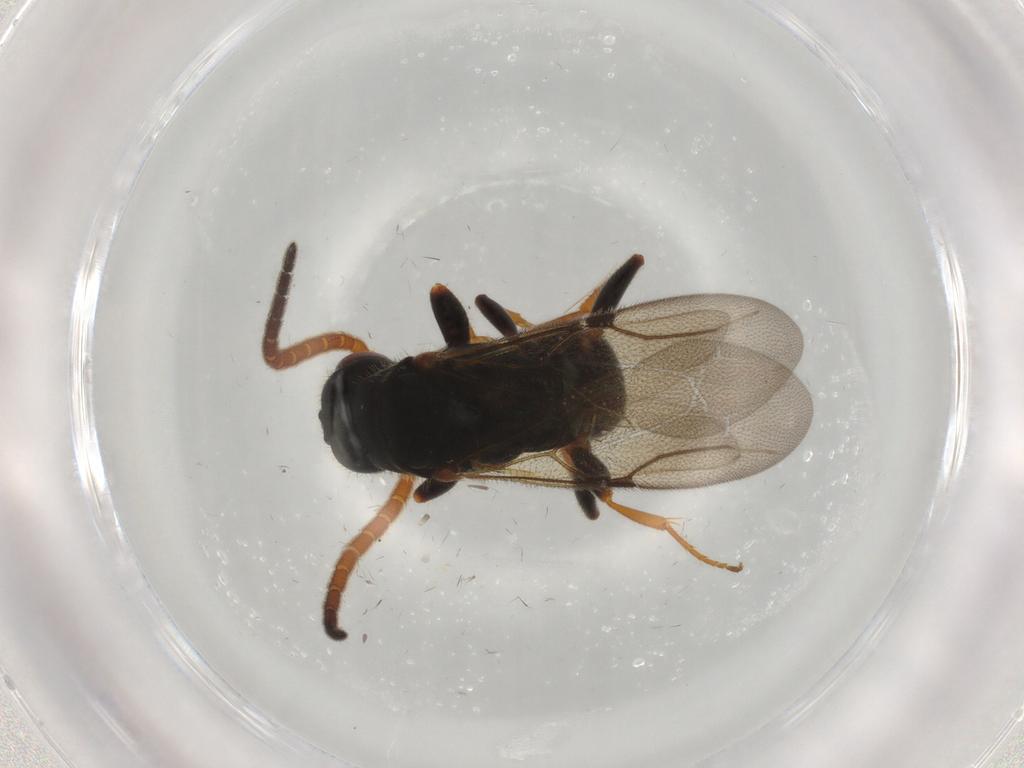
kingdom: Animalia
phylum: Arthropoda
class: Insecta
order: Hymenoptera
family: Bethylidae
